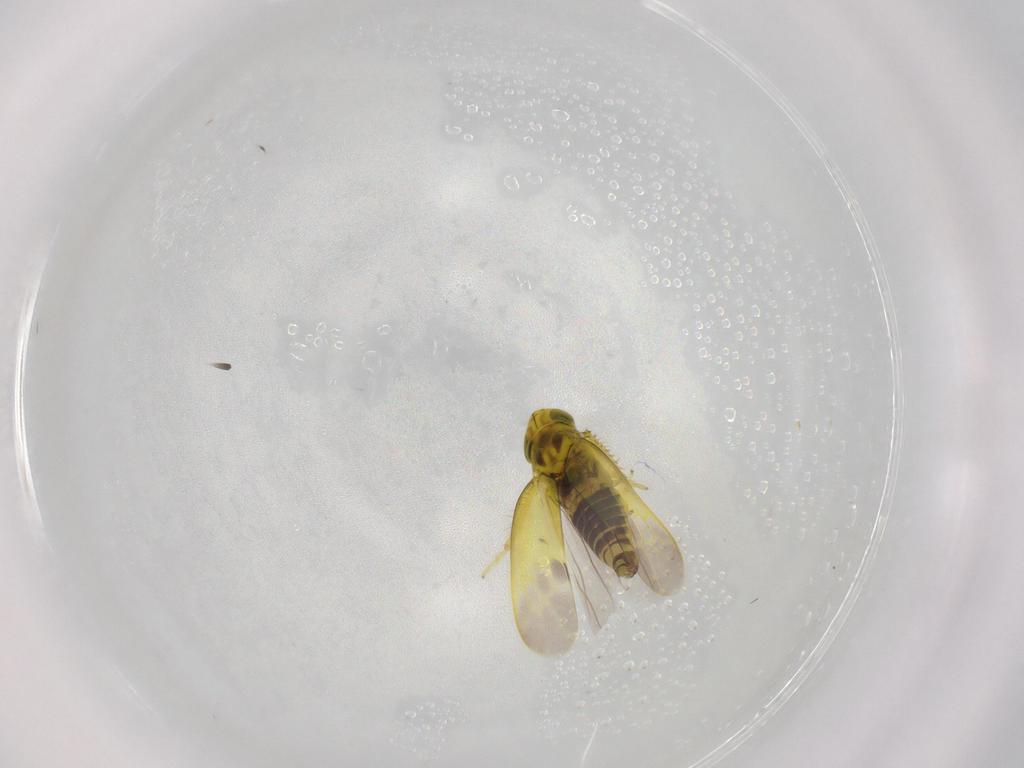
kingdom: Animalia
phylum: Arthropoda
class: Insecta
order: Hemiptera
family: Cicadellidae
